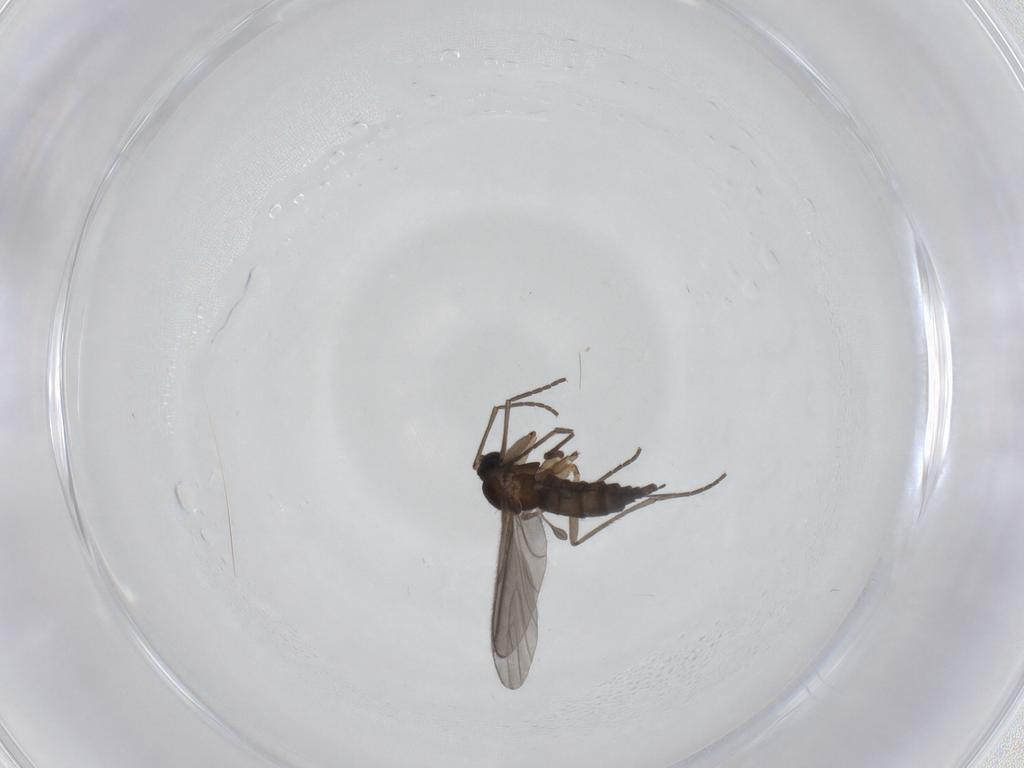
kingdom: Animalia
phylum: Arthropoda
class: Insecta
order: Diptera
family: Sciaridae
